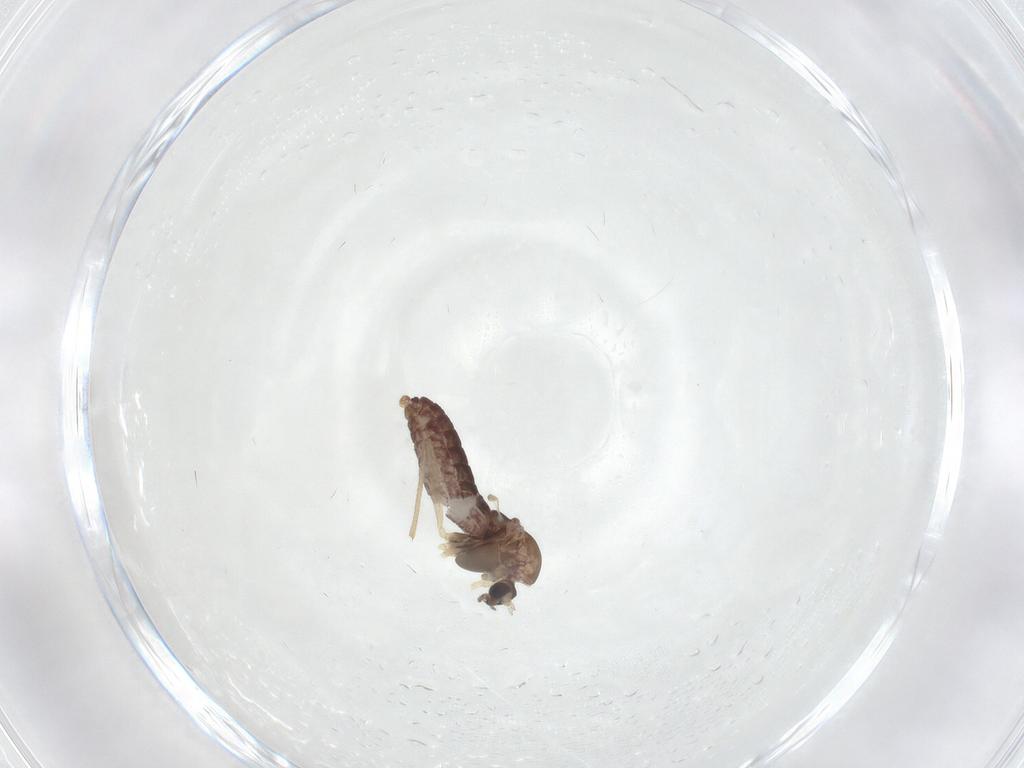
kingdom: Animalia
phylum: Arthropoda
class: Insecta
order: Diptera
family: Chironomidae
